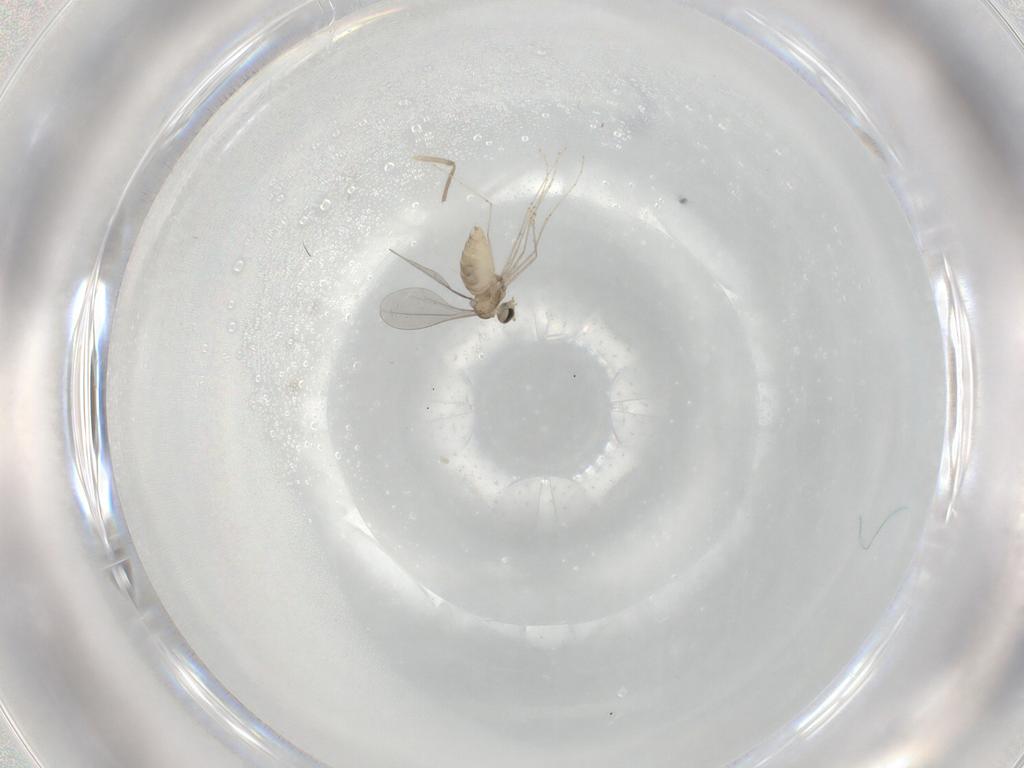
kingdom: Animalia
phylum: Arthropoda
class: Insecta
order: Diptera
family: Cecidomyiidae
